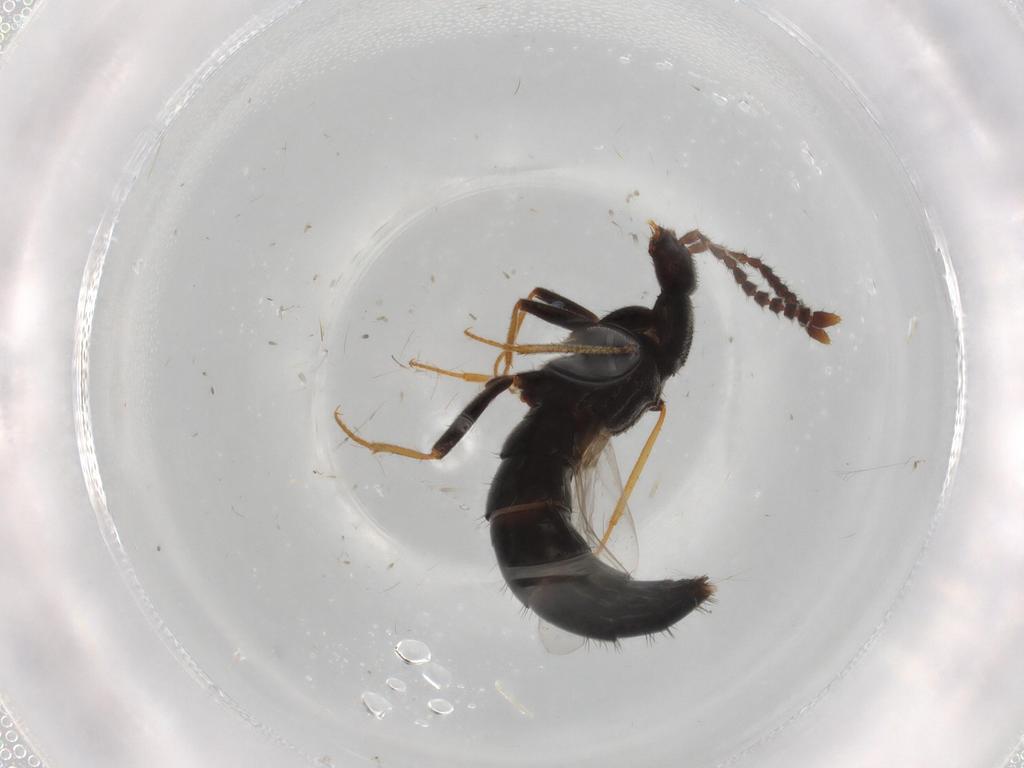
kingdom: Animalia
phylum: Arthropoda
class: Insecta
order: Coleoptera
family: Staphylinidae
